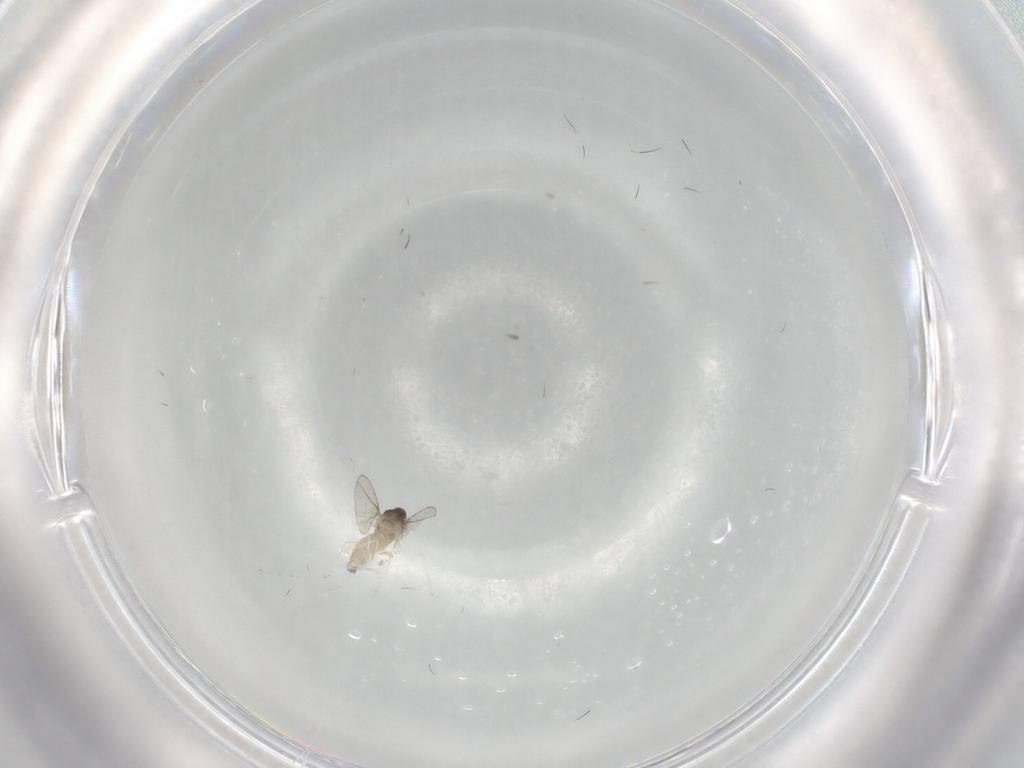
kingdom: Animalia
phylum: Arthropoda
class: Insecta
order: Diptera
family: Cecidomyiidae
